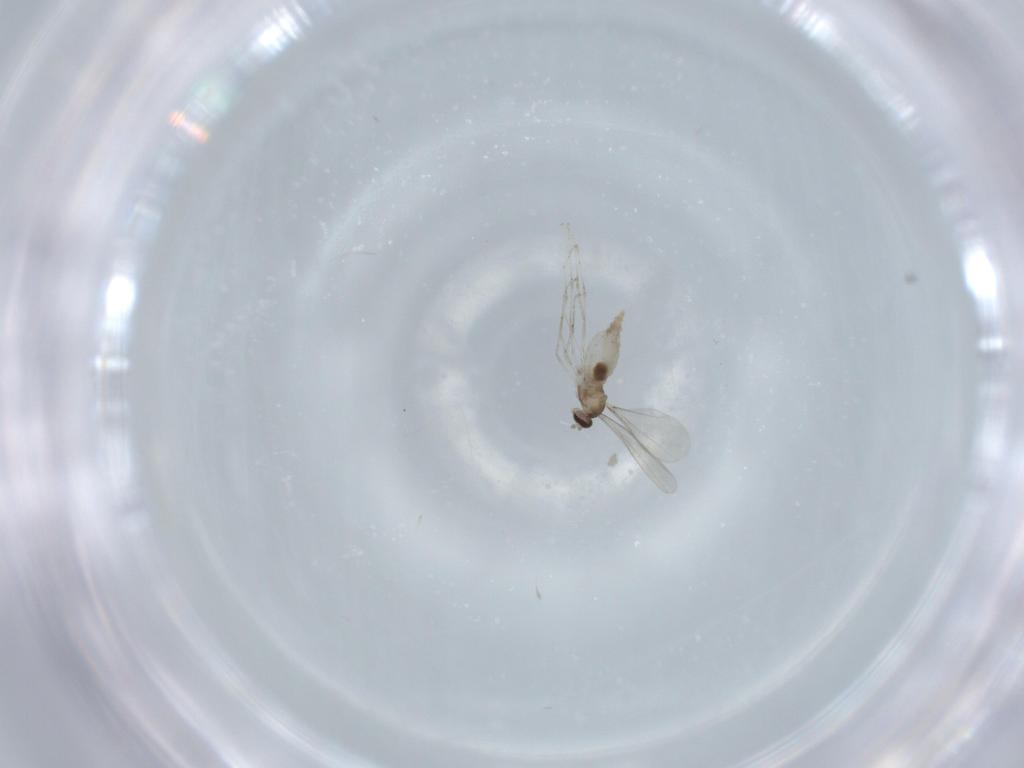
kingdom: Animalia
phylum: Arthropoda
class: Insecta
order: Diptera
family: Cecidomyiidae
